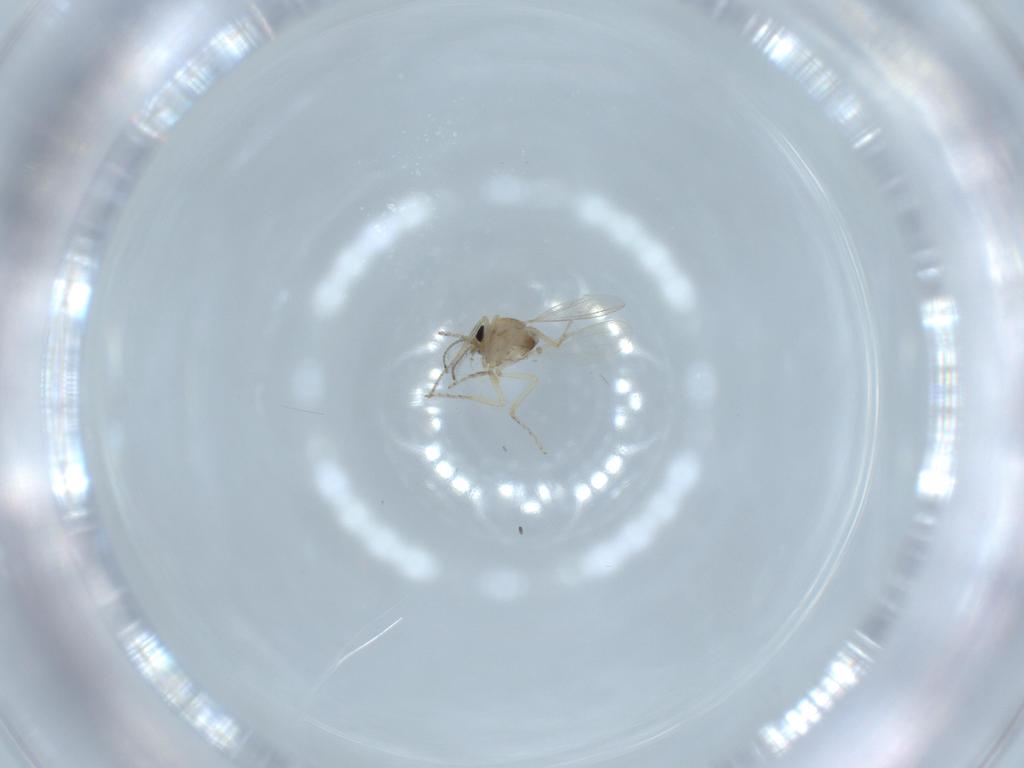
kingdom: Animalia
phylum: Arthropoda
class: Insecta
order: Diptera
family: Ceratopogonidae
